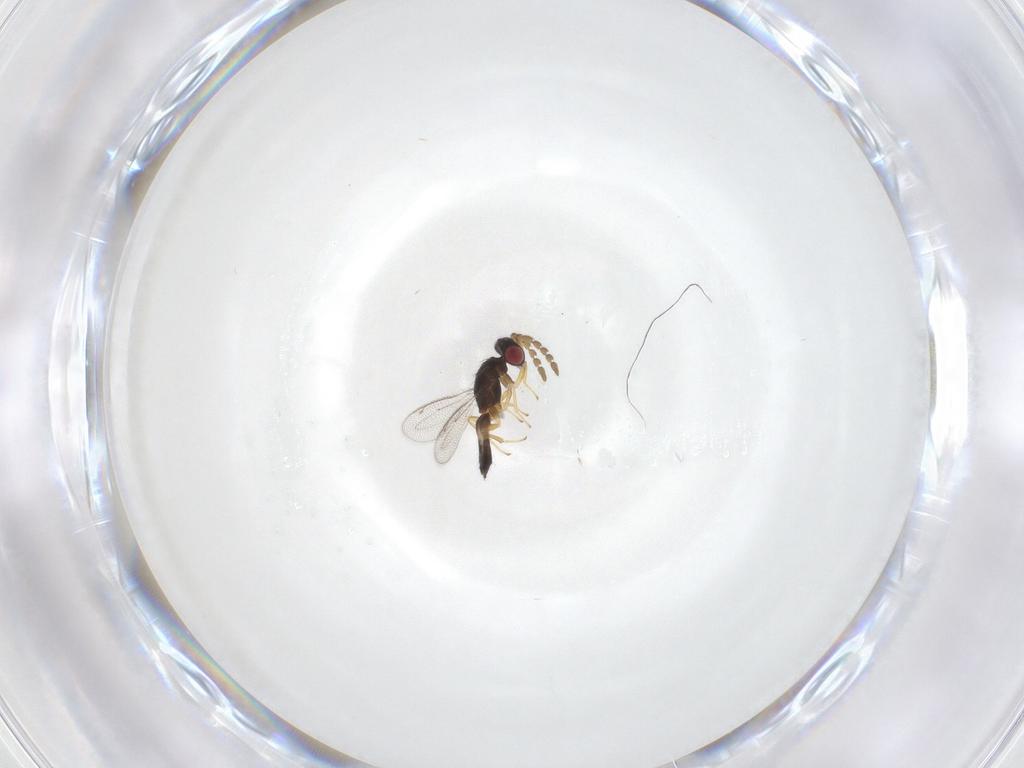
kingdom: Animalia
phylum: Arthropoda
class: Insecta
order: Hymenoptera
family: Eulophidae
